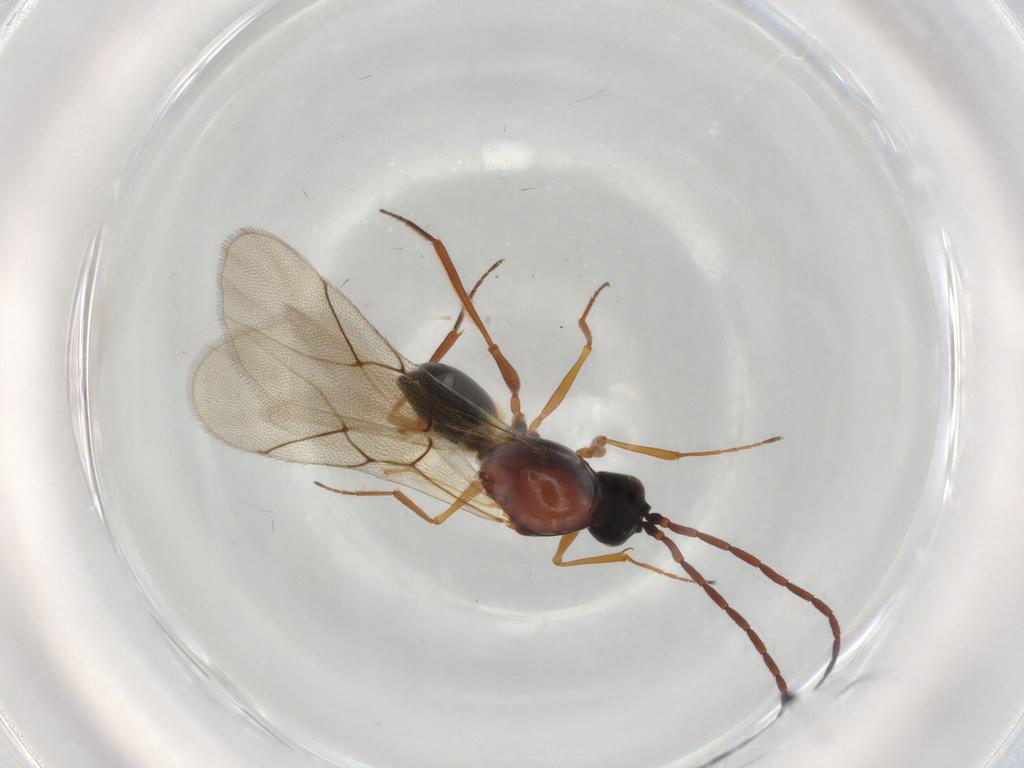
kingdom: Animalia
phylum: Arthropoda
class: Insecta
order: Hymenoptera
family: Figitidae
